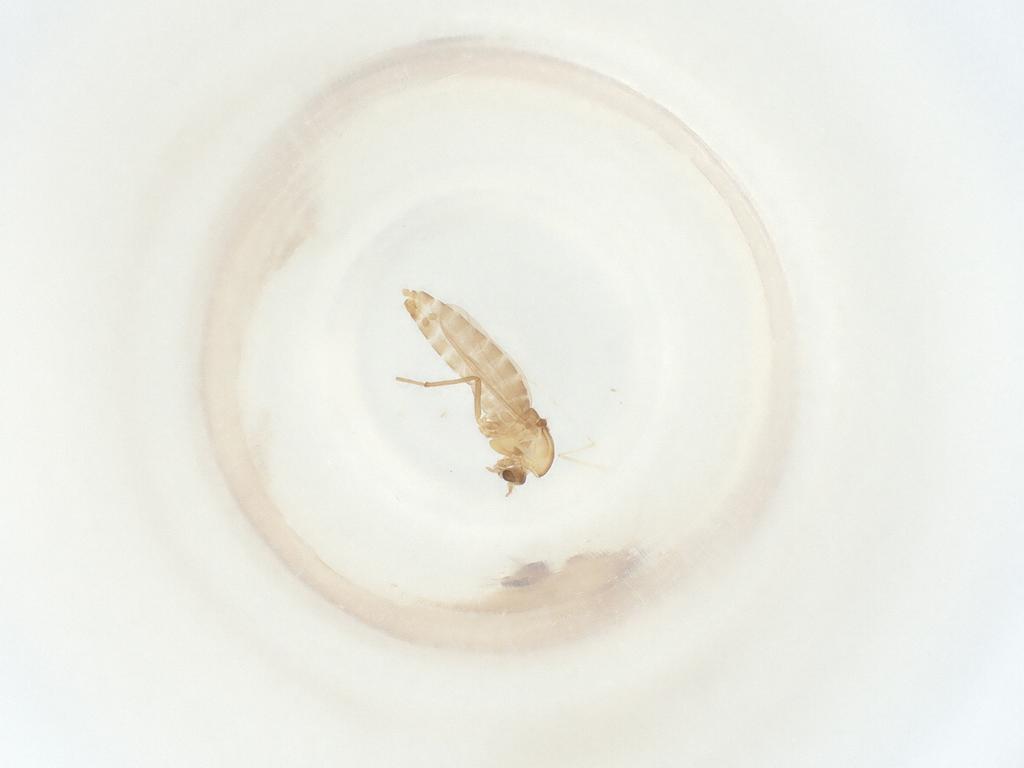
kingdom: Animalia
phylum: Arthropoda
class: Insecta
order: Diptera
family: Chironomidae
